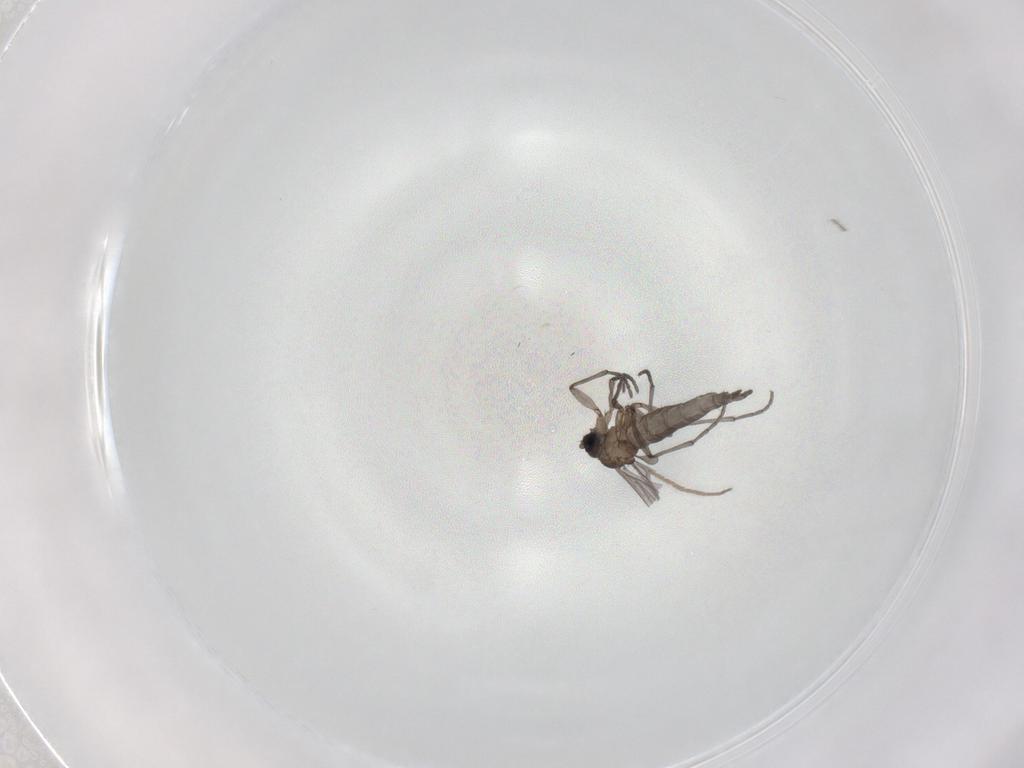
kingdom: Animalia
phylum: Arthropoda
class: Insecta
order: Diptera
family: Sciaridae
